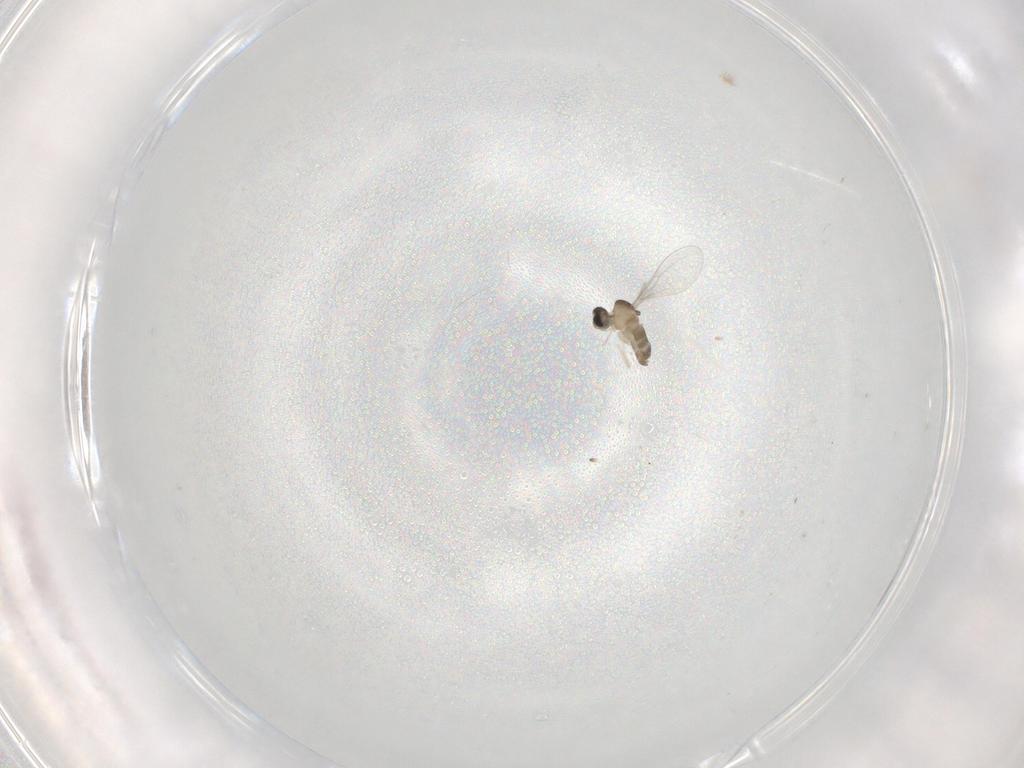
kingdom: Animalia
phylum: Arthropoda
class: Insecta
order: Diptera
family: Cecidomyiidae
